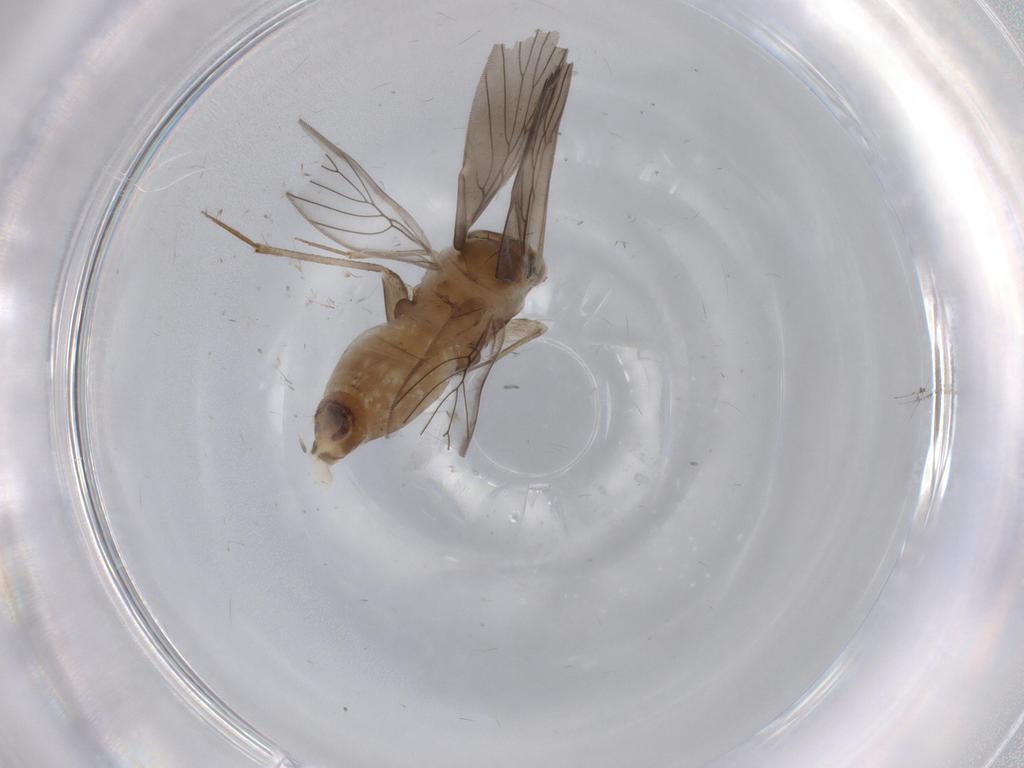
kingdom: Animalia
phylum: Arthropoda
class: Insecta
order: Psocodea
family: Lepidopsocidae
